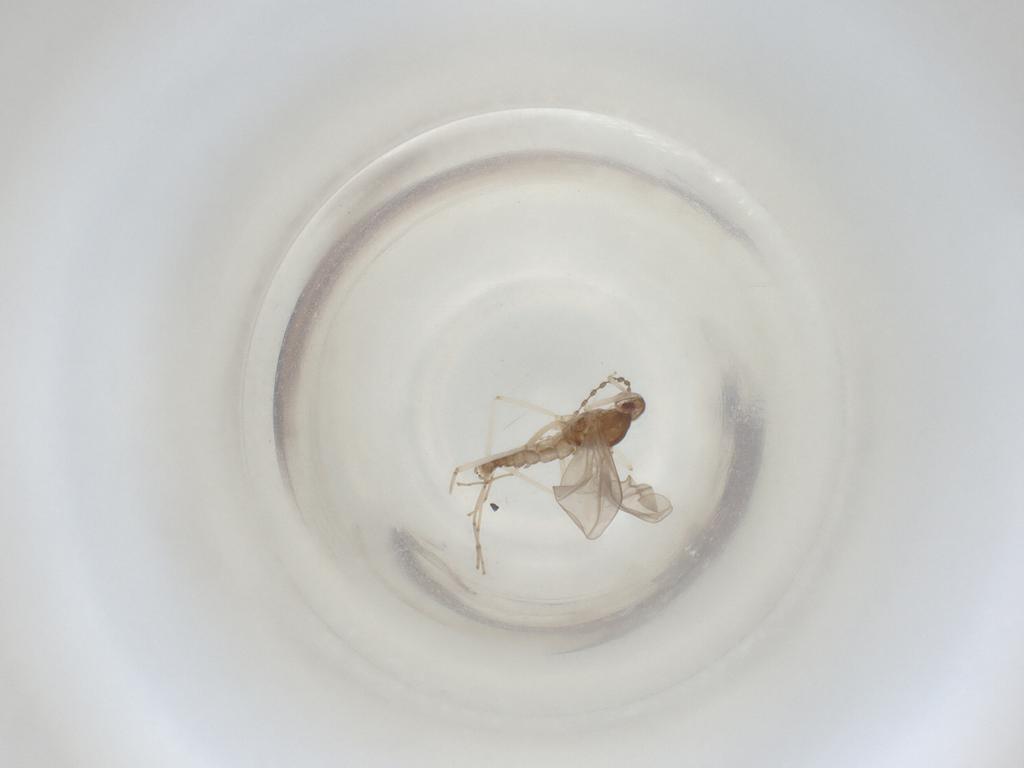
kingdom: Animalia
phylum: Arthropoda
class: Insecta
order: Diptera
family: Cecidomyiidae
